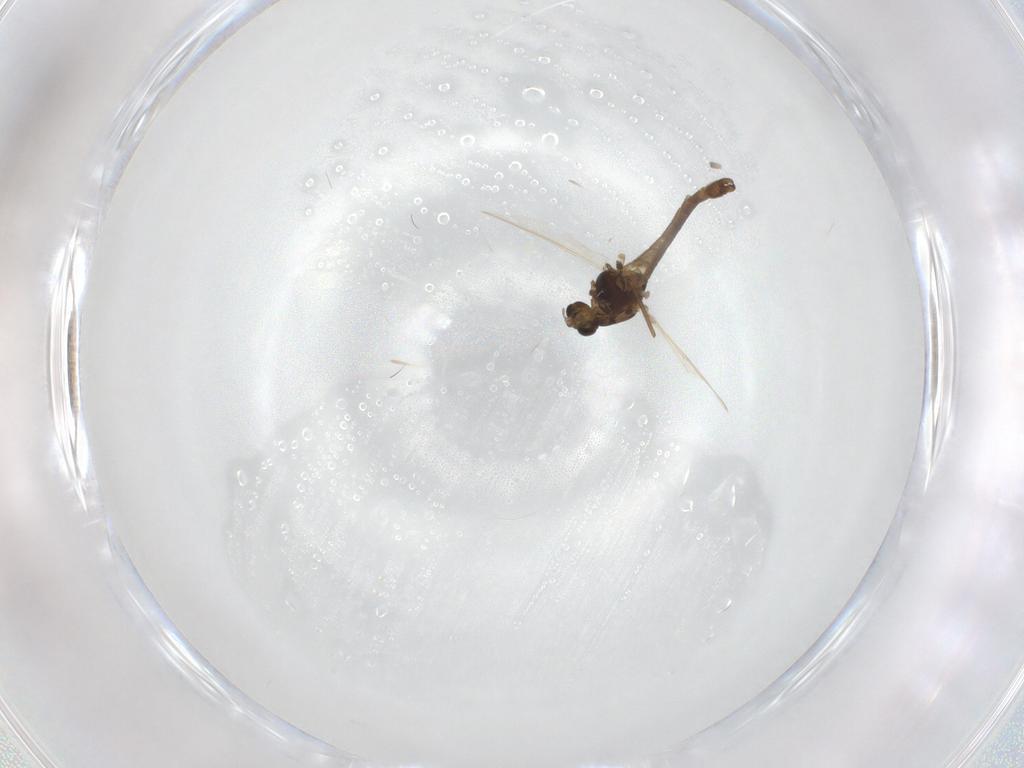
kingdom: Animalia
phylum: Arthropoda
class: Insecta
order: Diptera
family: Chironomidae
